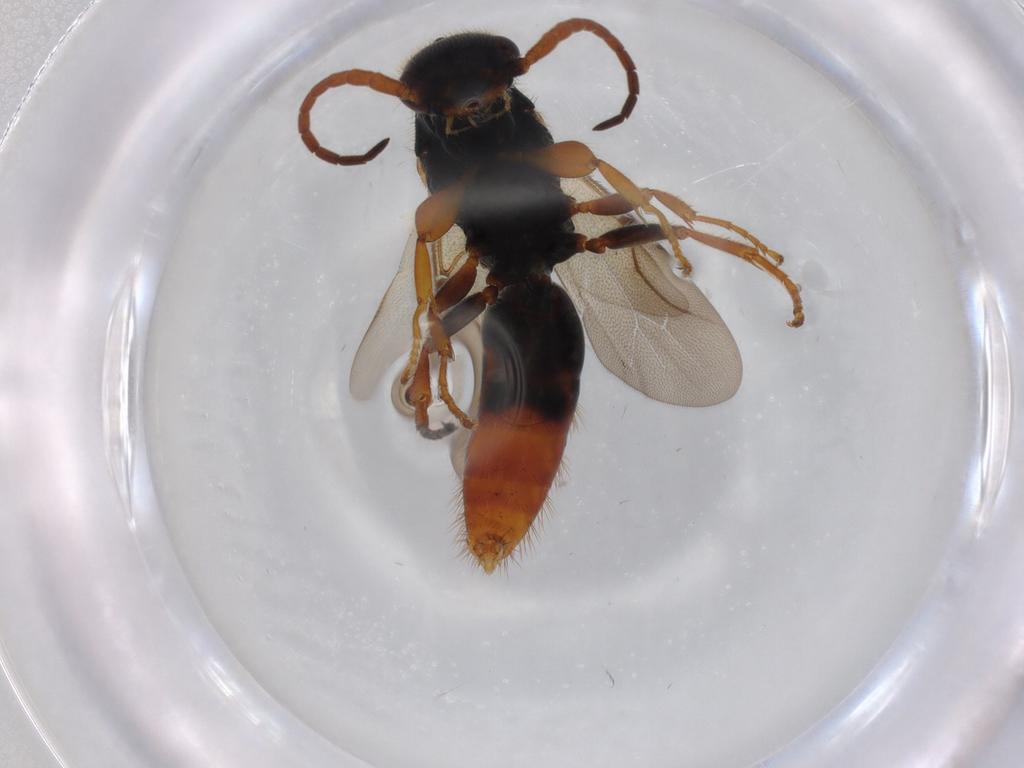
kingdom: Animalia
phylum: Arthropoda
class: Insecta
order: Hymenoptera
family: Bethylidae
